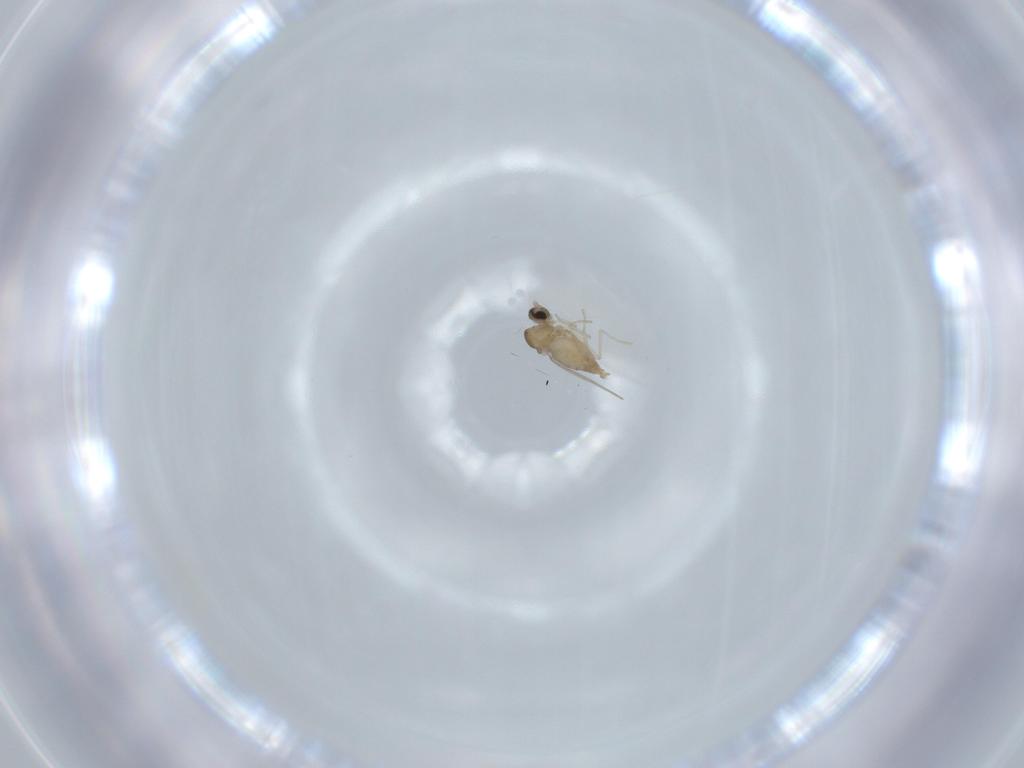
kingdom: Animalia
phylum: Arthropoda
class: Insecta
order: Diptera
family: Cecidomyiidae
